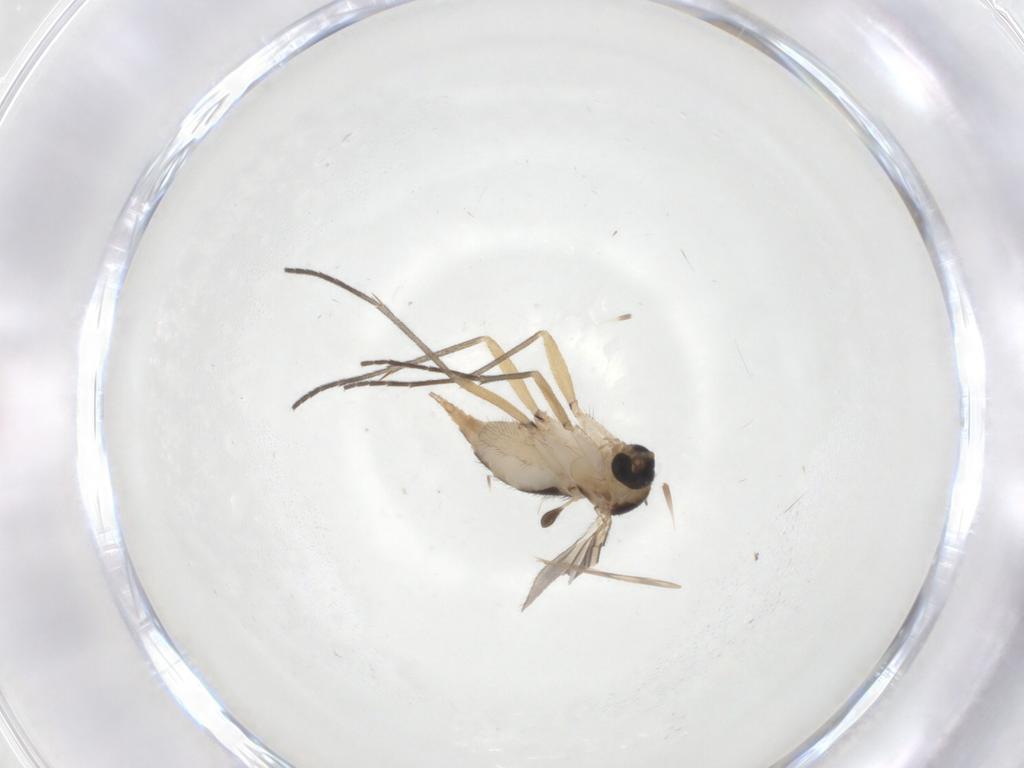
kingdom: Animalia
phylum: Arthropoda
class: Insecta
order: Diptera
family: Sciaridae
